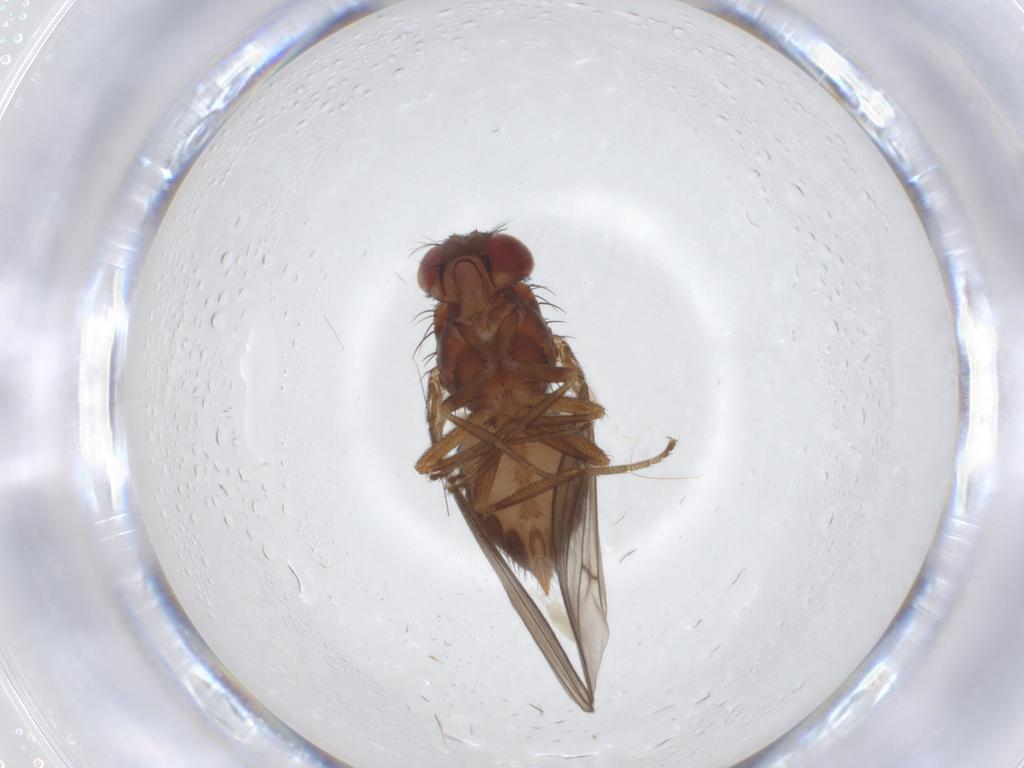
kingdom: Animalia
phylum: Arthropoda
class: Insecta
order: Diptera
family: Drosophilidae
